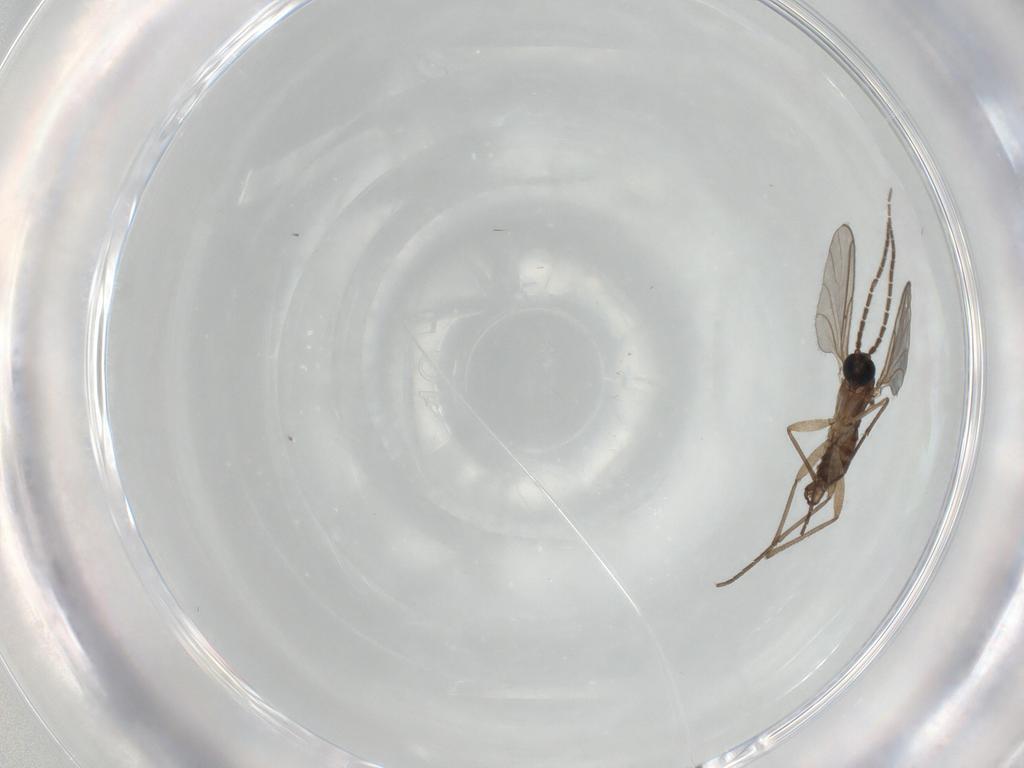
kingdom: Animalia
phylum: Arthropoda
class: Insecta
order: Diptera
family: Sciaridae
